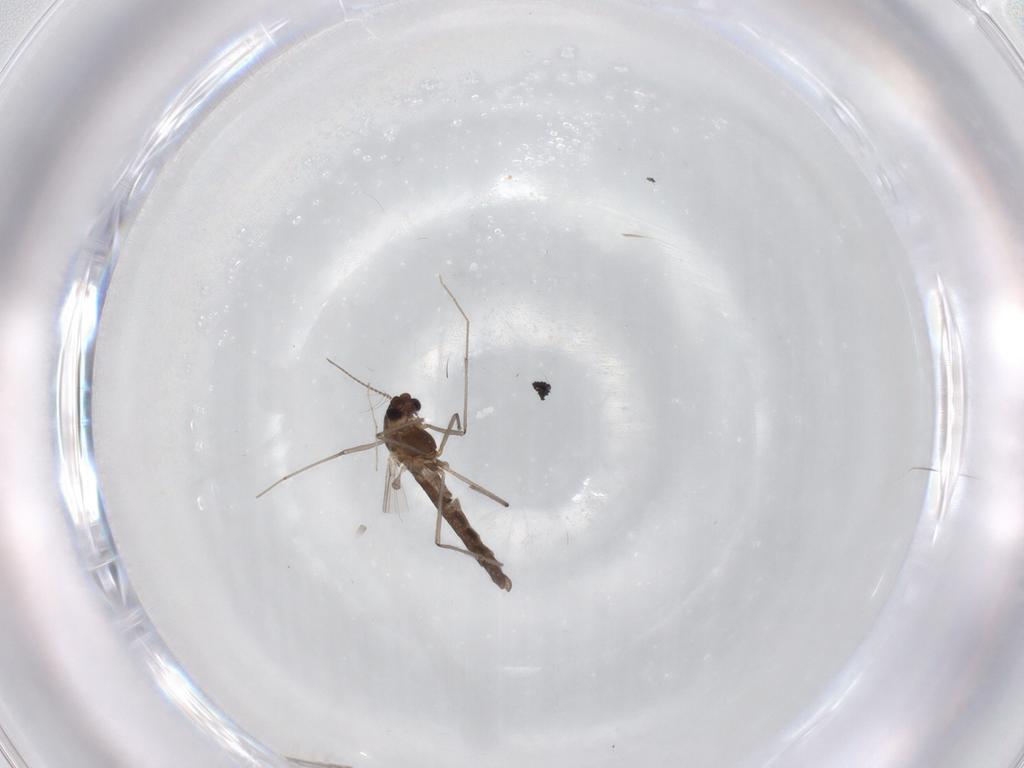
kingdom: Animalia
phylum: Arthropoda
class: Insecta
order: Diptera
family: Chironomidae
